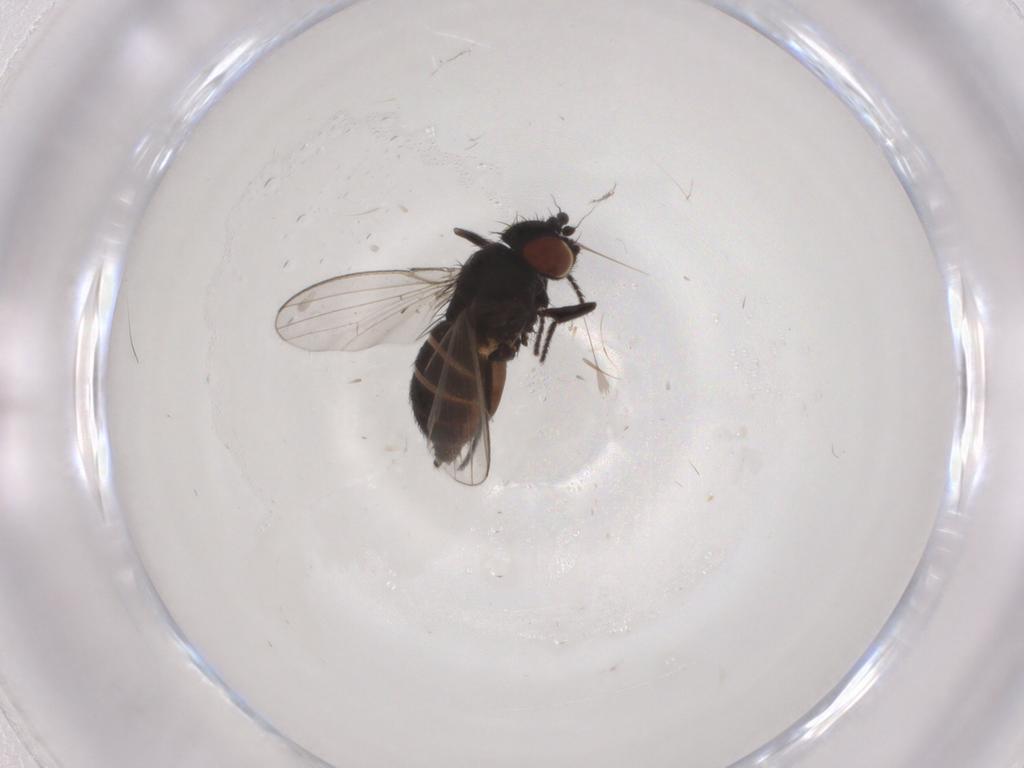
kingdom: Animalia
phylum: Arthropoda
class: Insecta
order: Diptera
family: Milichiidae
